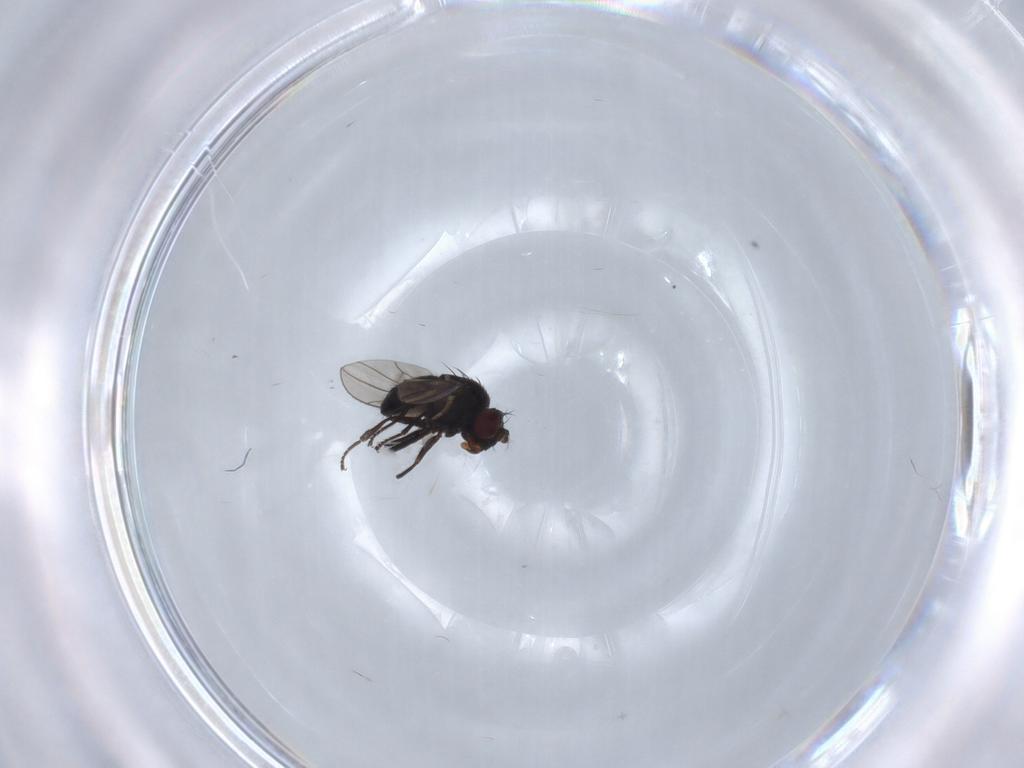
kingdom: Animalia
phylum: Arthropoda
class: Insecta
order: Diptera
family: Ephydridae
